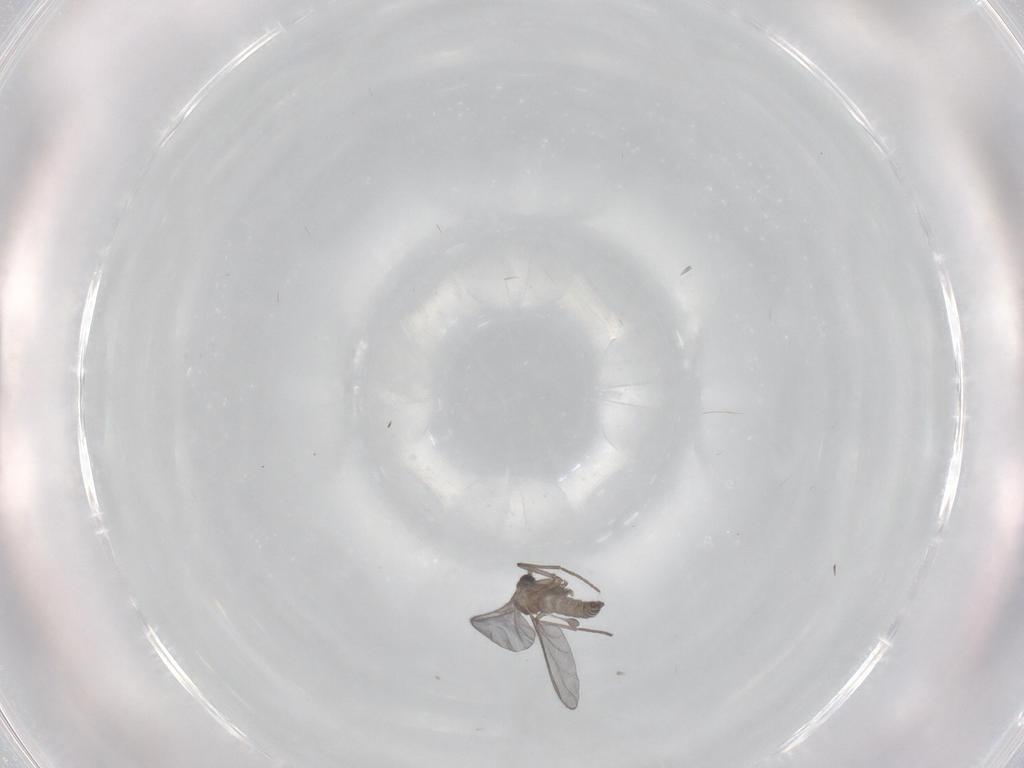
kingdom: Animalia
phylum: Arthropoda
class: Insecta
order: Diptera
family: Sciaridae
